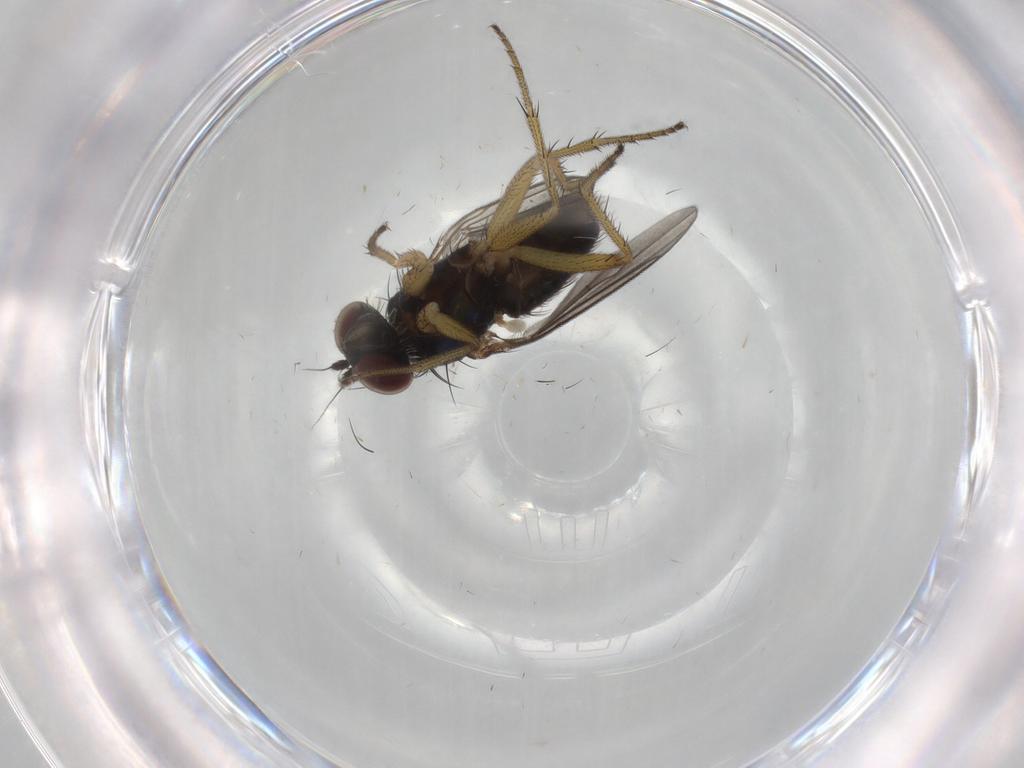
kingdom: Animalia
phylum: Arthropoda
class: Insecta
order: Diptera
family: Dolichopodidae
